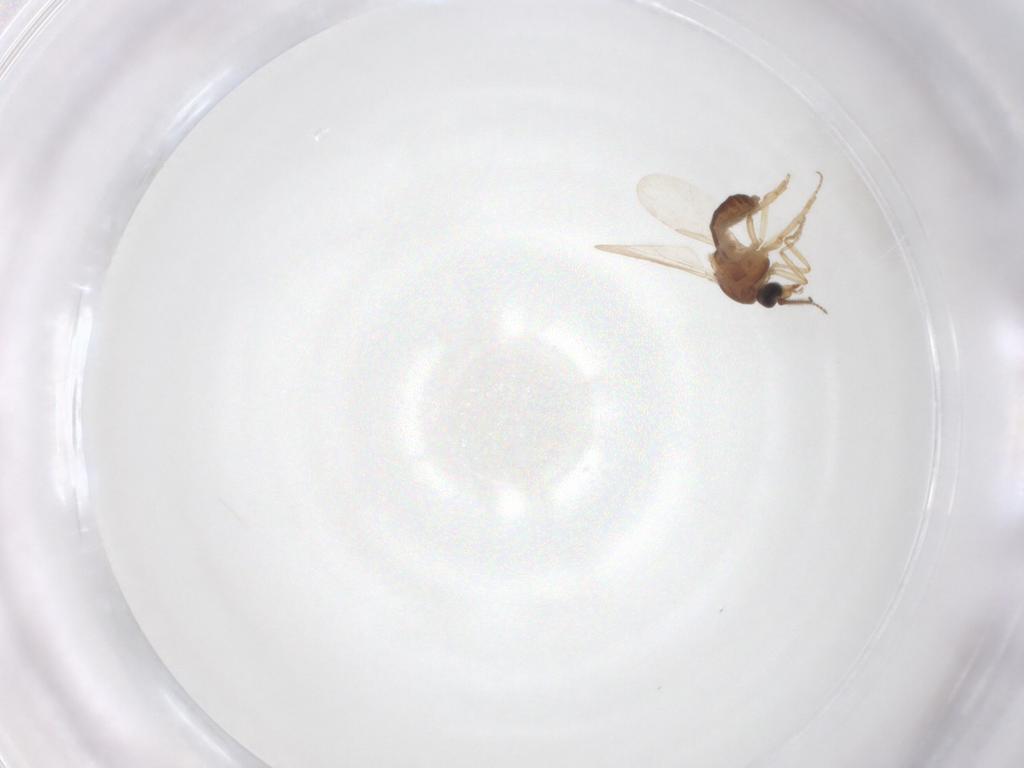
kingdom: Animalia
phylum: Arthropoda
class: Insecta
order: Diptera
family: Ceratopogonidae
